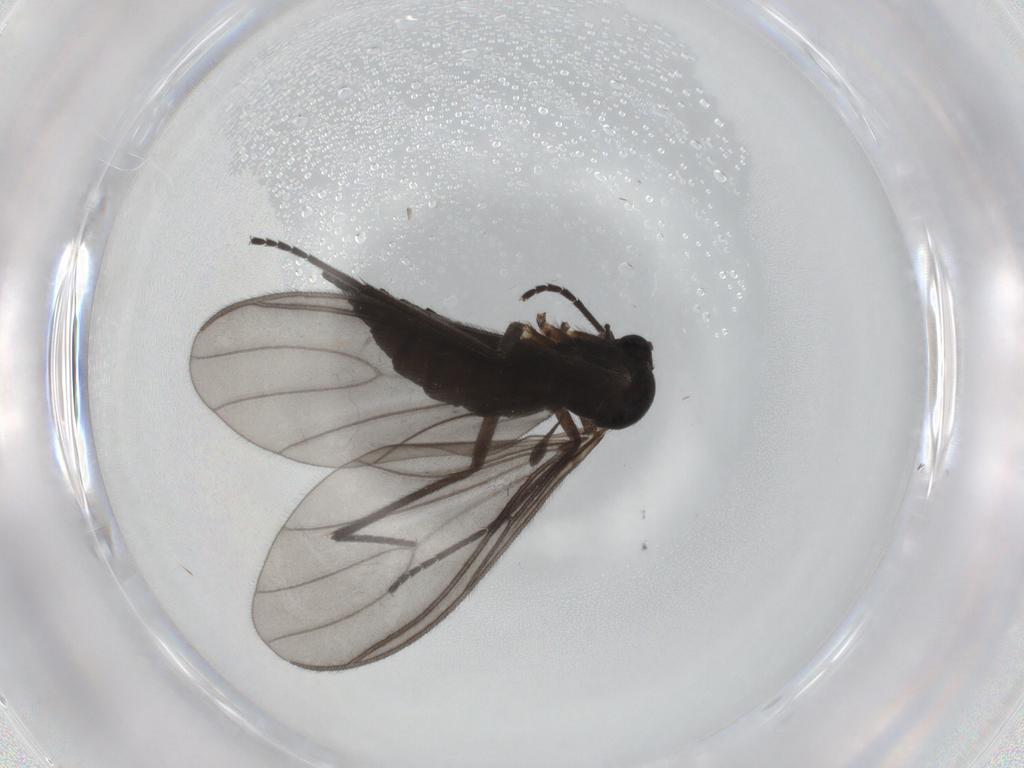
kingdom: Animalia
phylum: Arthropoda
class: Insecta
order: Diptera
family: Sciaridae
